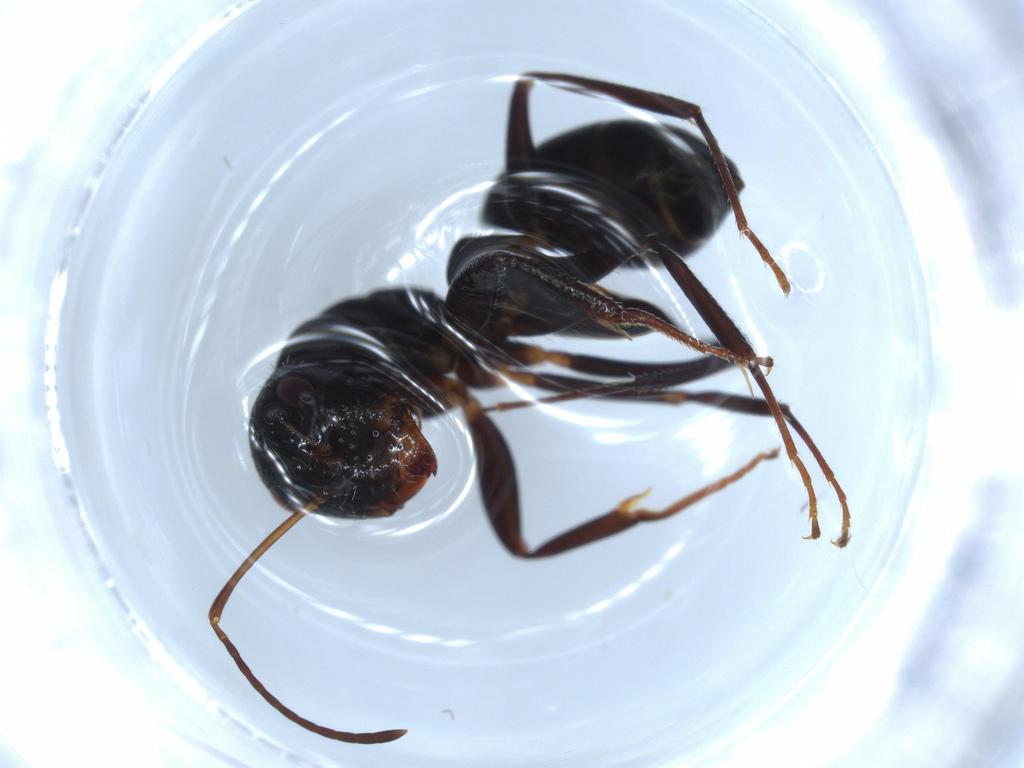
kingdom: Animalia
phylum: Arthropoda
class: Insecta
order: Hymenoptera
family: Formicidae
